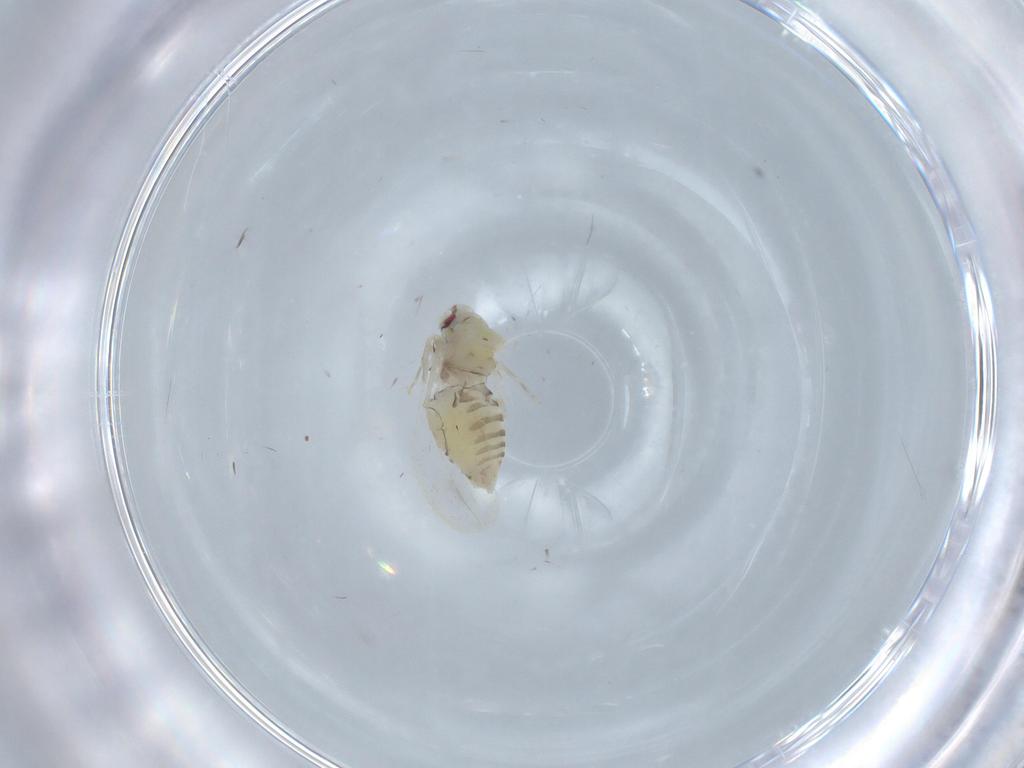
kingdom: Animalia
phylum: Arthropoda
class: Insecta
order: Hemiptera
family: Aleyrodidae
